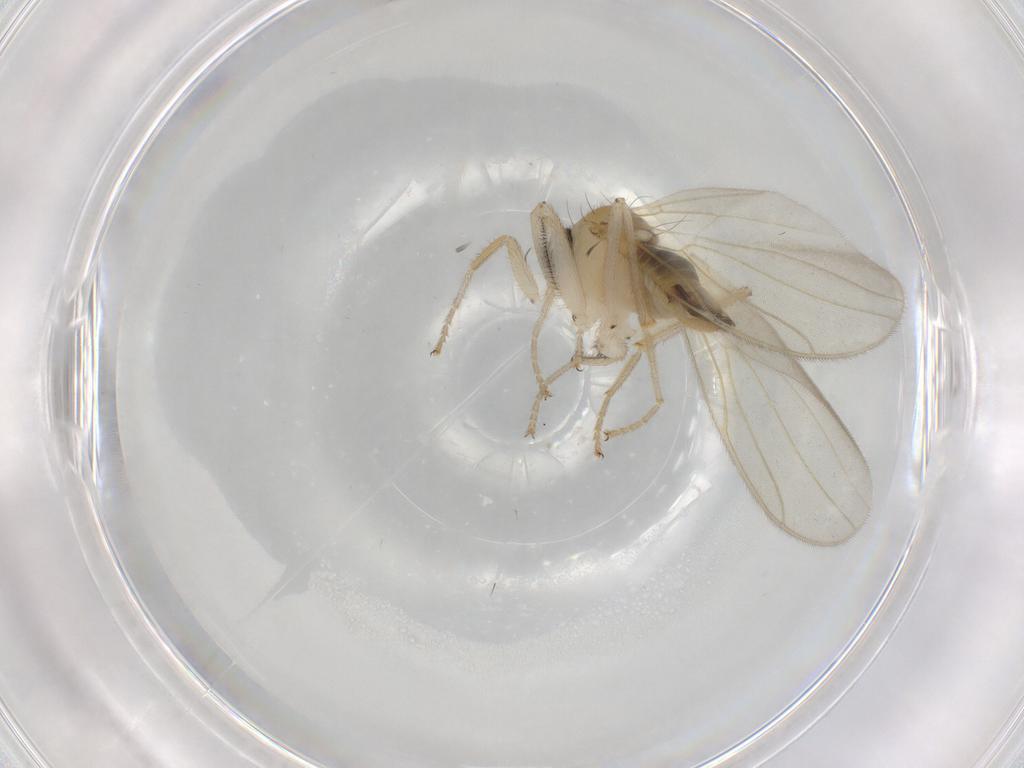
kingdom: Animalia
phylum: Arthropoda
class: Insecta
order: Diptera
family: Hybotidae
